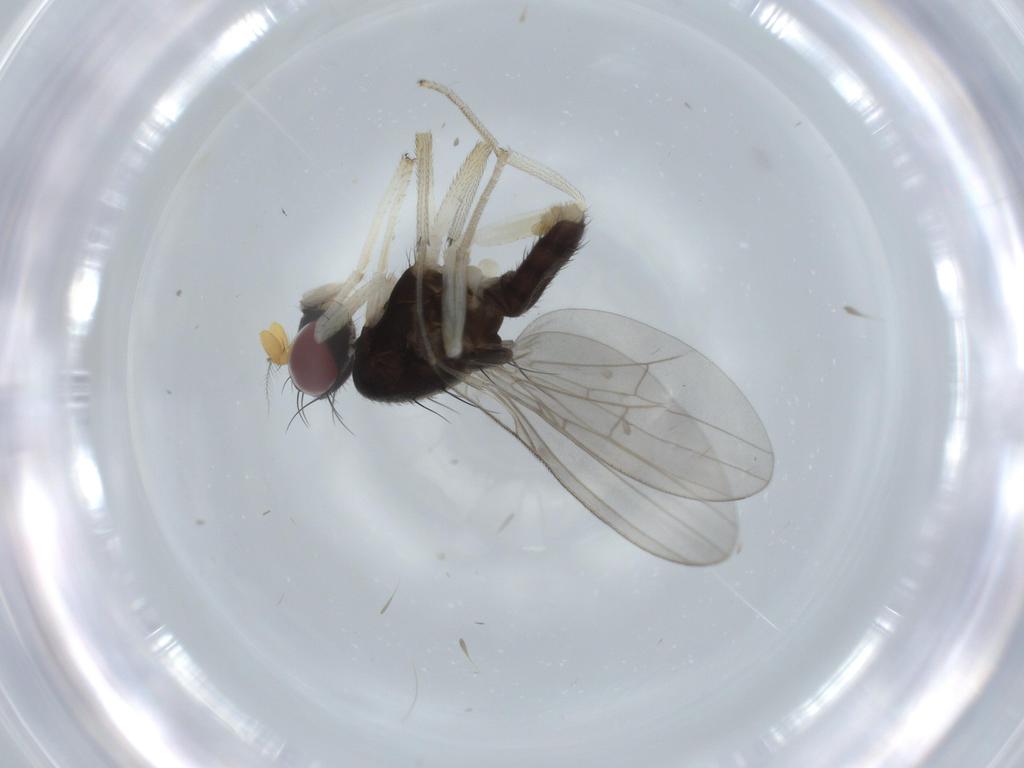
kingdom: Animalia
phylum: Arthropoda
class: Insecta
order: Diptera
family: Syrphidae
